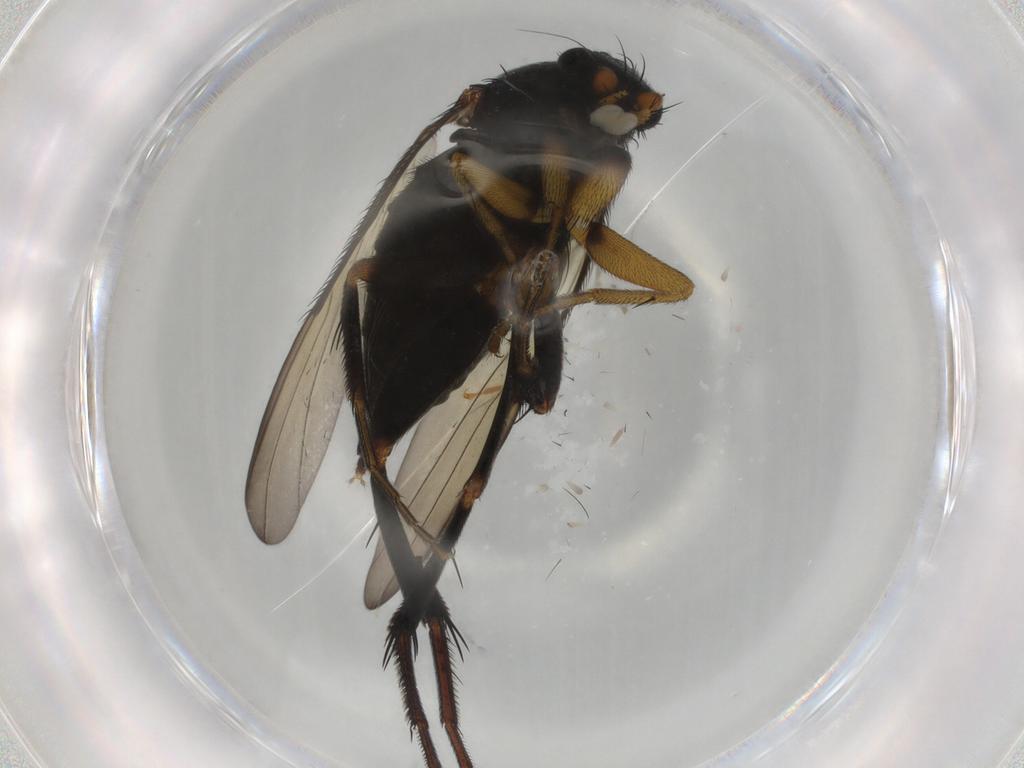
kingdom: Animalia
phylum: Arthropoda
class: Insecta
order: Diptera
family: Phoridae
